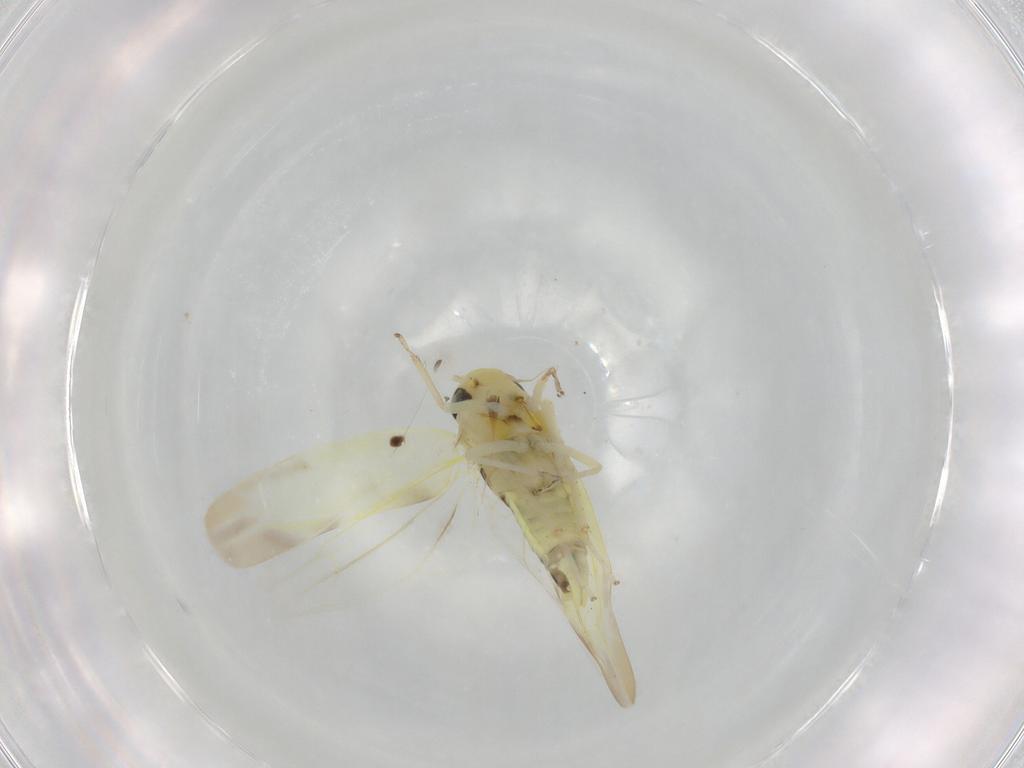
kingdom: Animalia
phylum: Arthropoda
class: Insecta
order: Hemiptera
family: Cicadellidae
